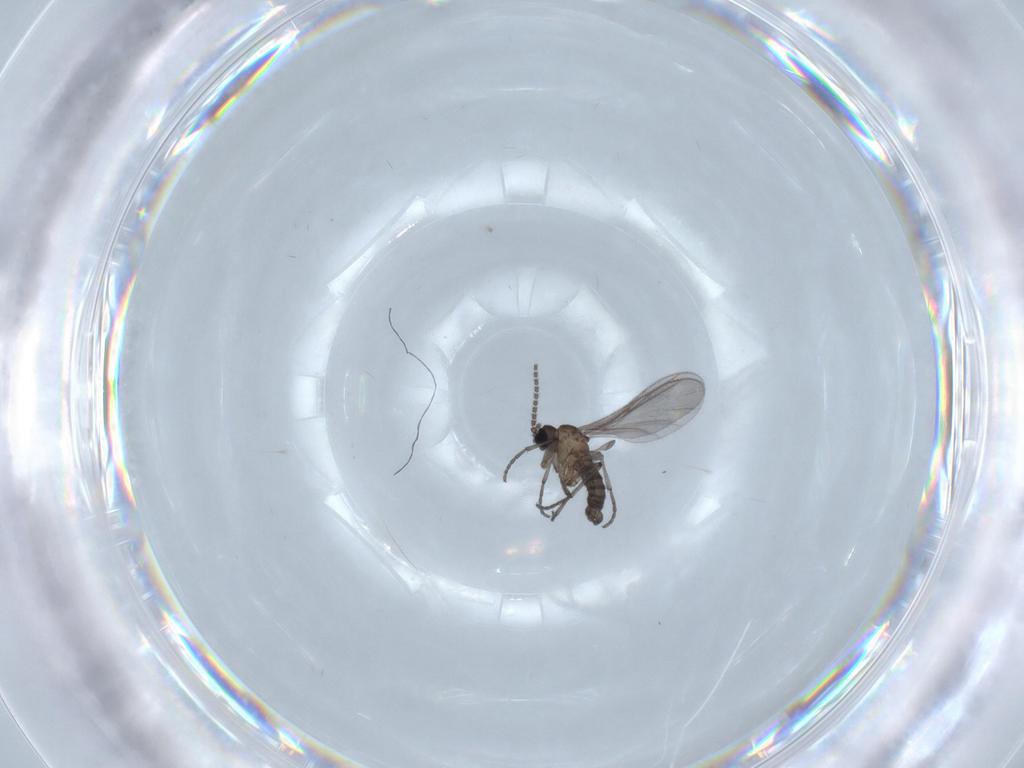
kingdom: Animalia
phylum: Arthropoda
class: Insecta
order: Diptera
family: Sciaridae
